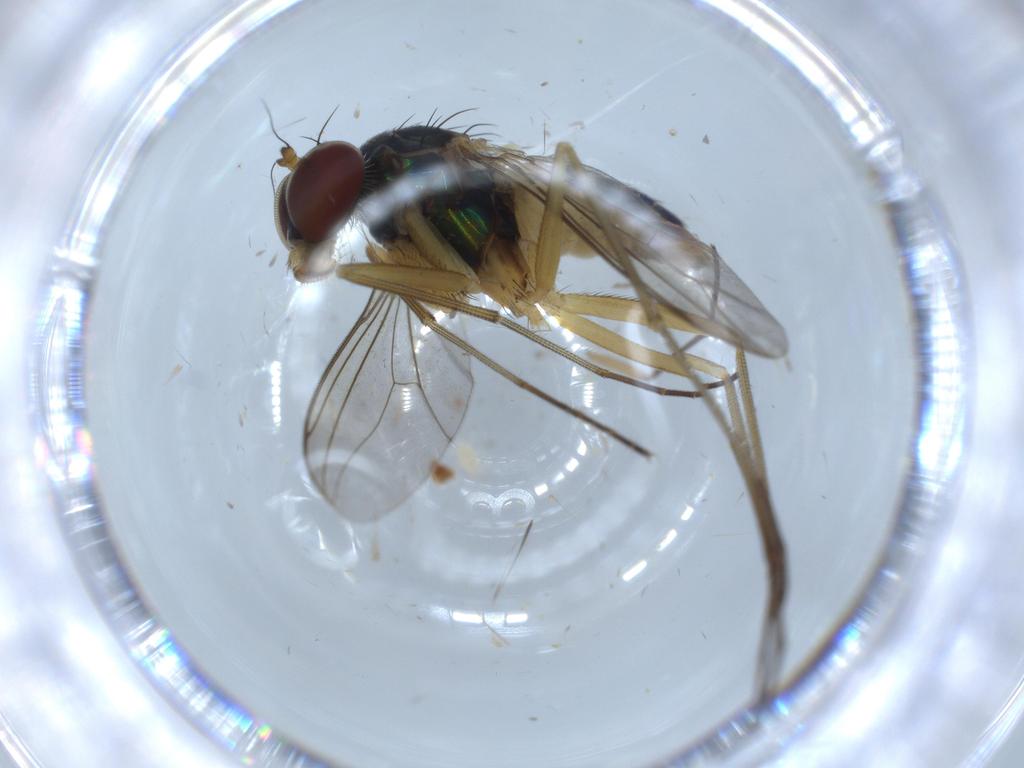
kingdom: Animalia
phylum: Arthropoda
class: Insecta
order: Diptera
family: Dolichopodidae
